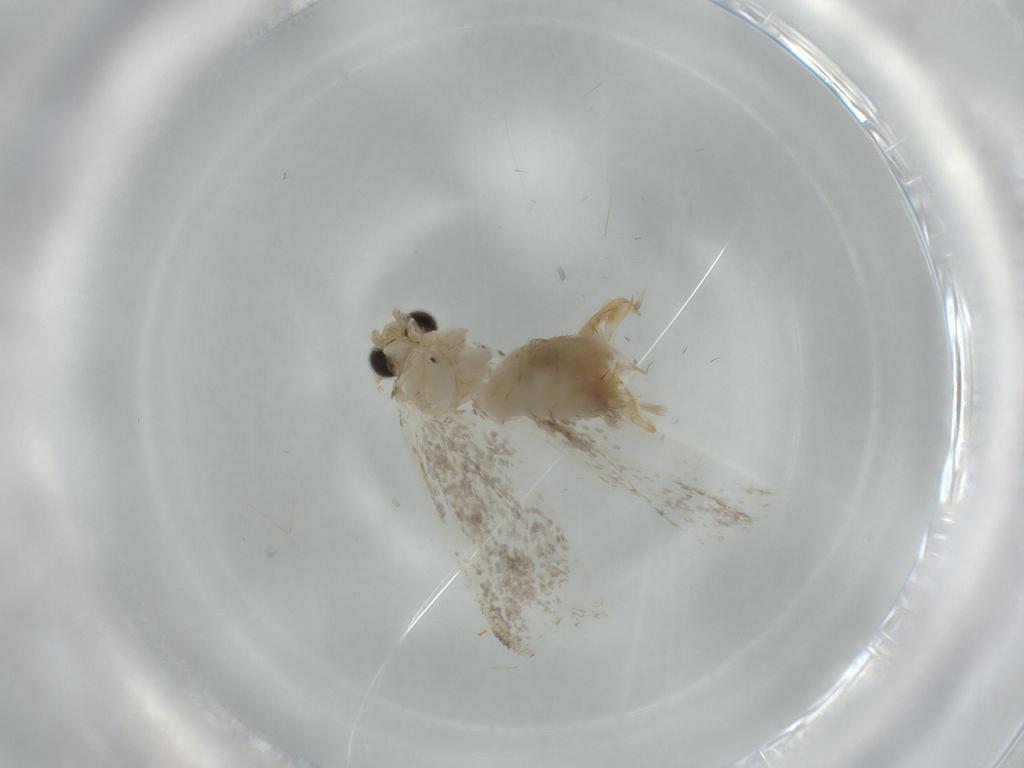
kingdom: Animalia
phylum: Arthropoda
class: Insecta
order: Lepidoptera
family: Tineidae
